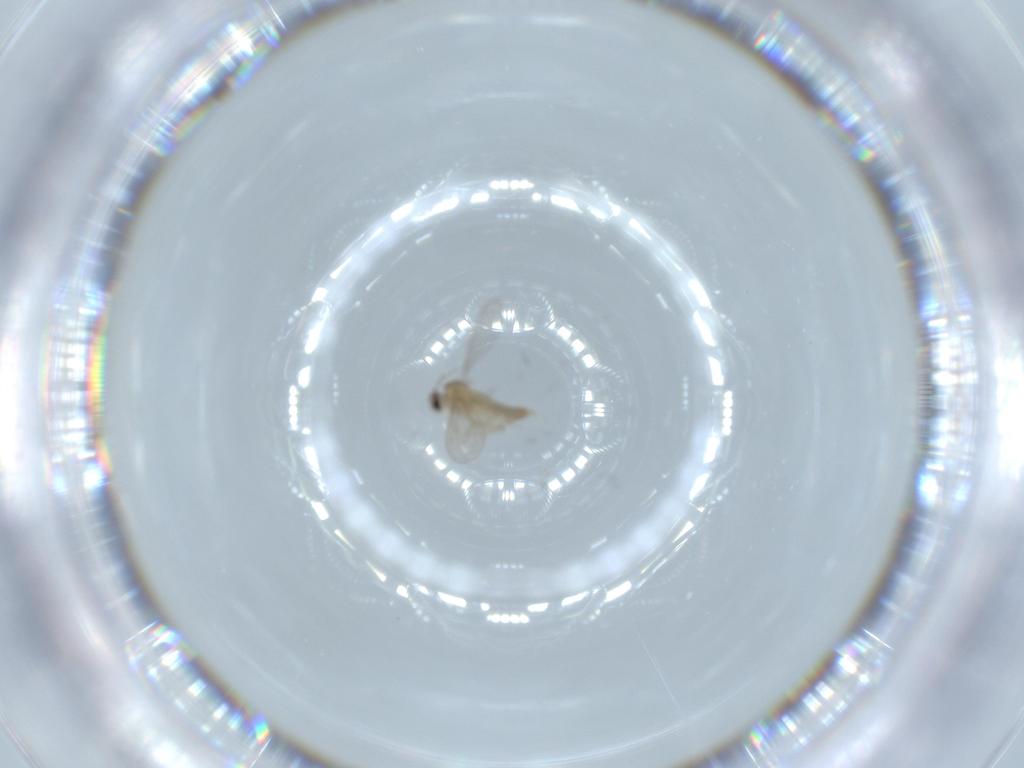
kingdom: Animalia
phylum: Arthropoda
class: Insecta
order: Diptera
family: Cecidomyiidae
